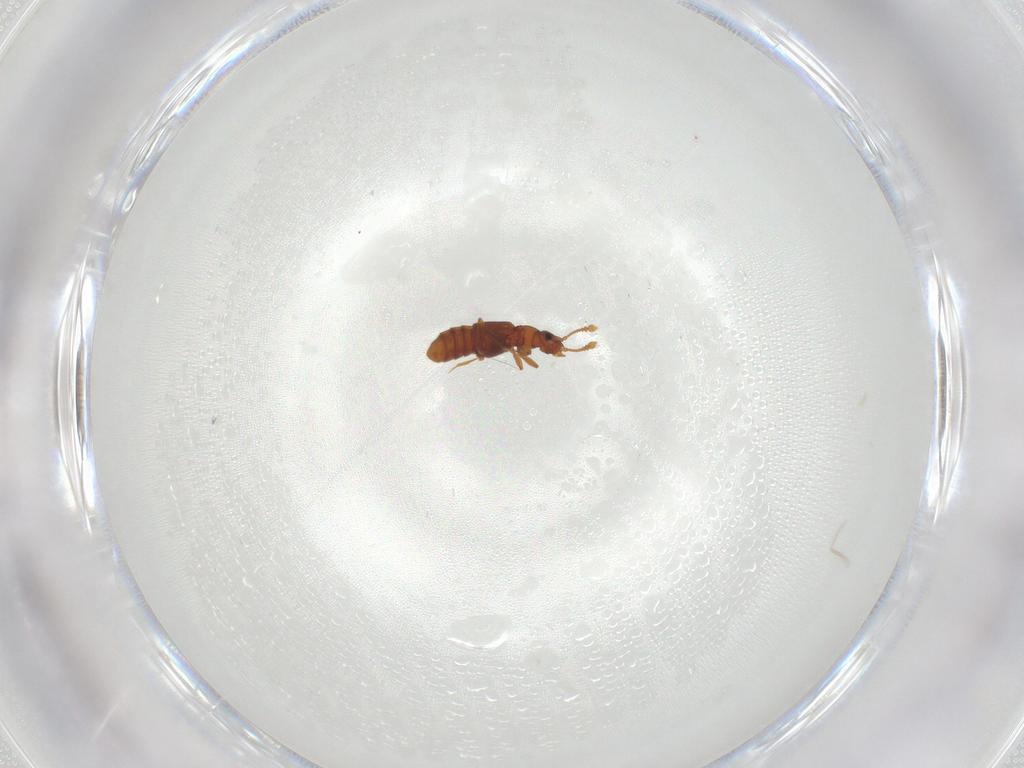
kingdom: Animalia
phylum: Arthropoda
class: Insecta
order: Coleoptera
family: Staphylinidae
